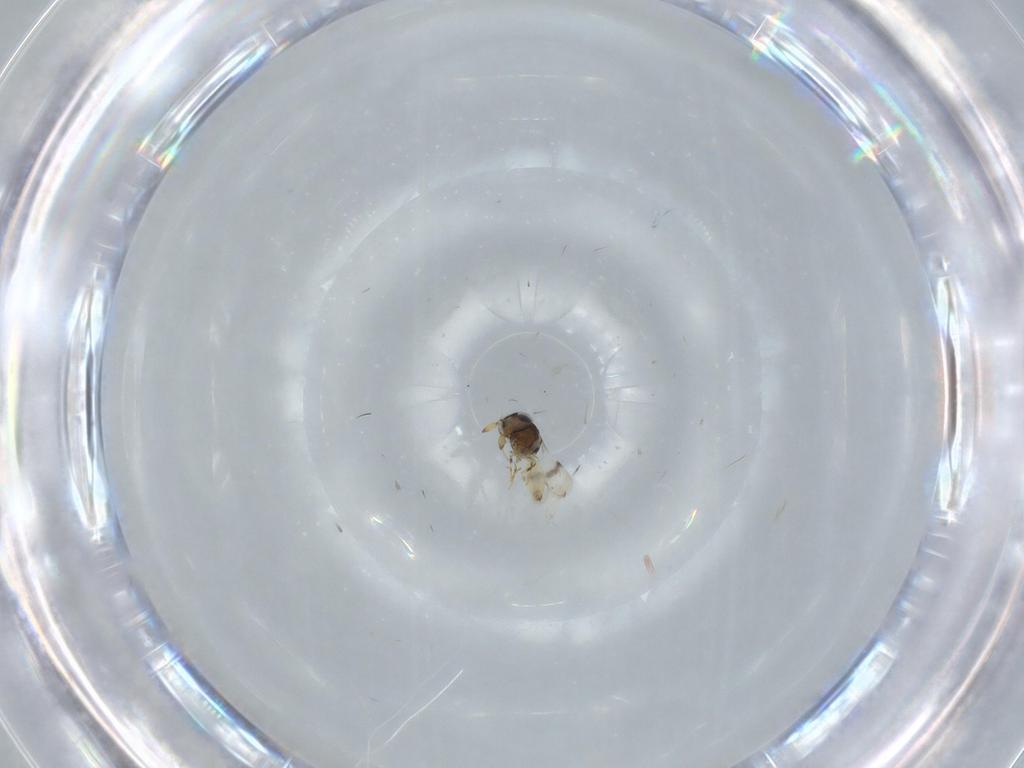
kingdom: Animalia
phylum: Arthropoda
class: Insecta
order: Hymenoptera
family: Scelionidae
